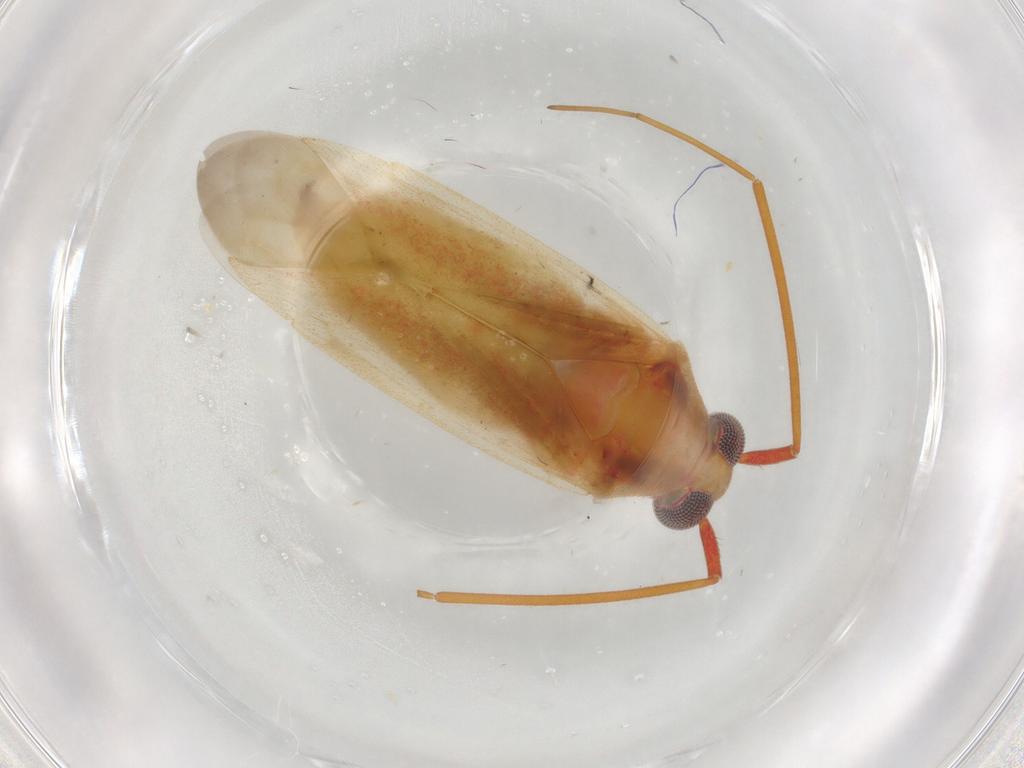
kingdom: Animalia
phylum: Arthropoda
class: Insecta
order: Hemiptera
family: Miridae
